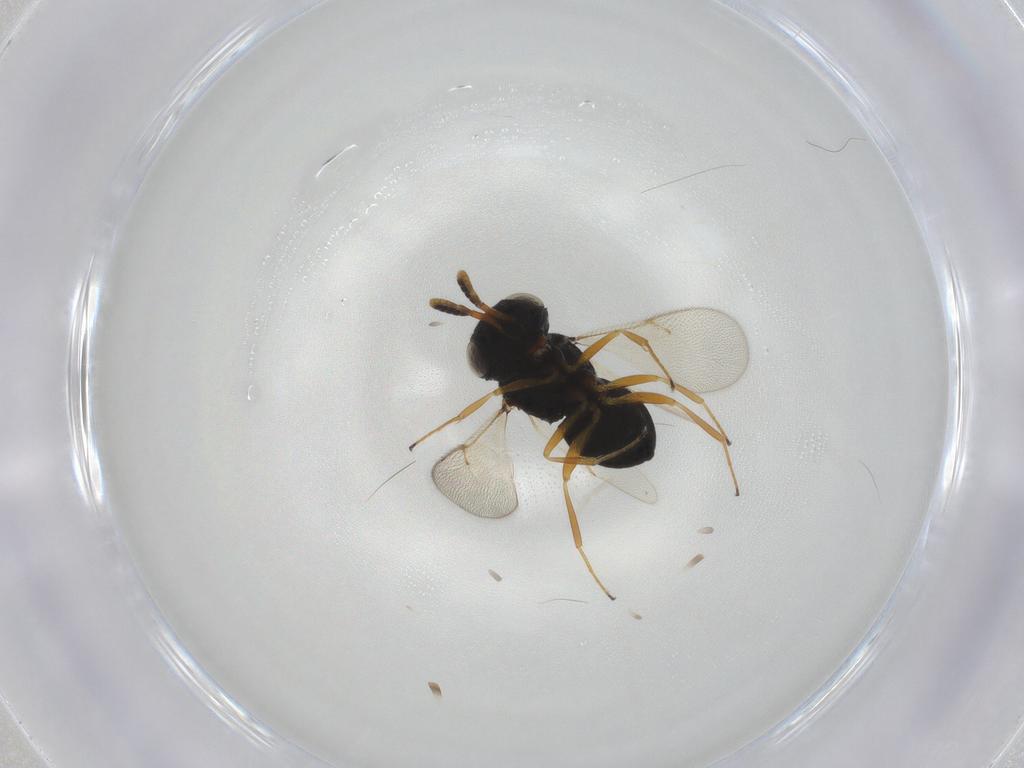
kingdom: Animalia
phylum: Arthropoda
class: Insecta
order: Hymenoptera
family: Scelionidae
